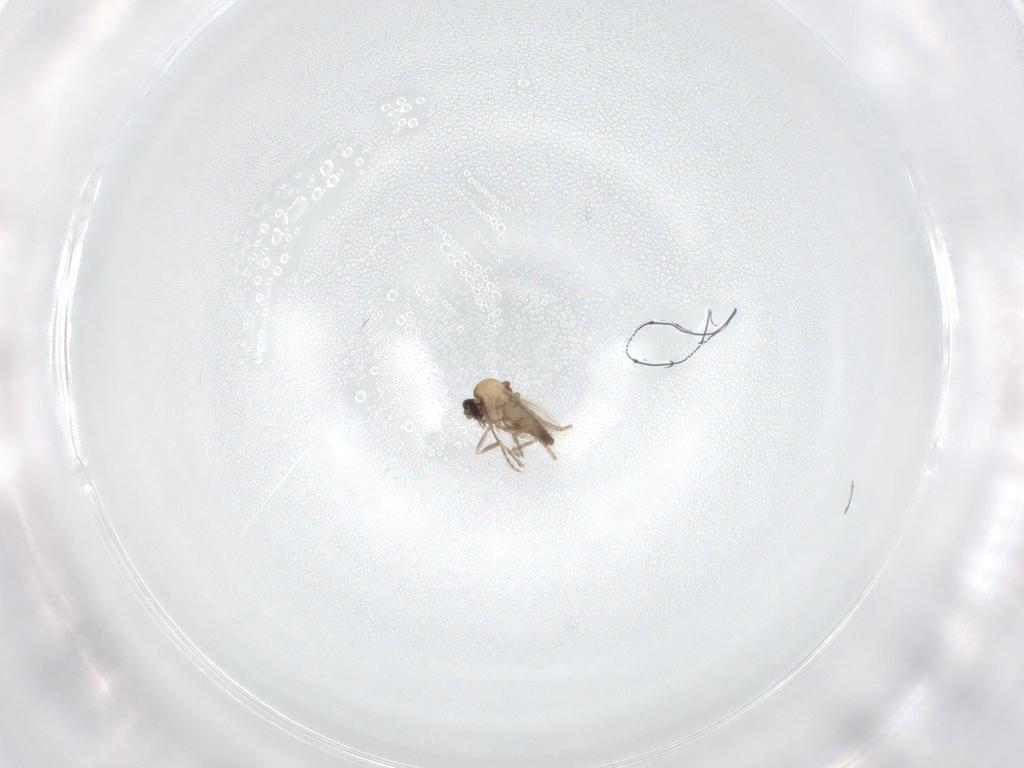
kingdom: Animalia
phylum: Arthropoda
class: Insecta
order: Diptera
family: Ceratopogonidae
